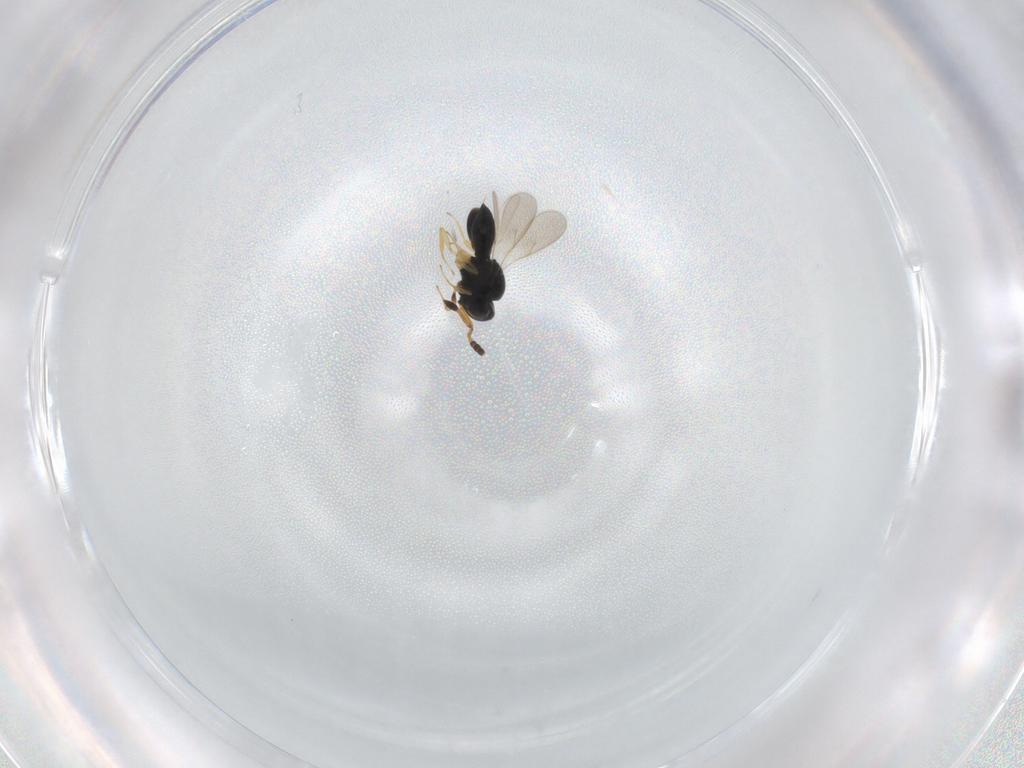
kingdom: Animalia
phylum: Arthropoda
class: Insecta
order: Hymenoptera
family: Scelionidae
